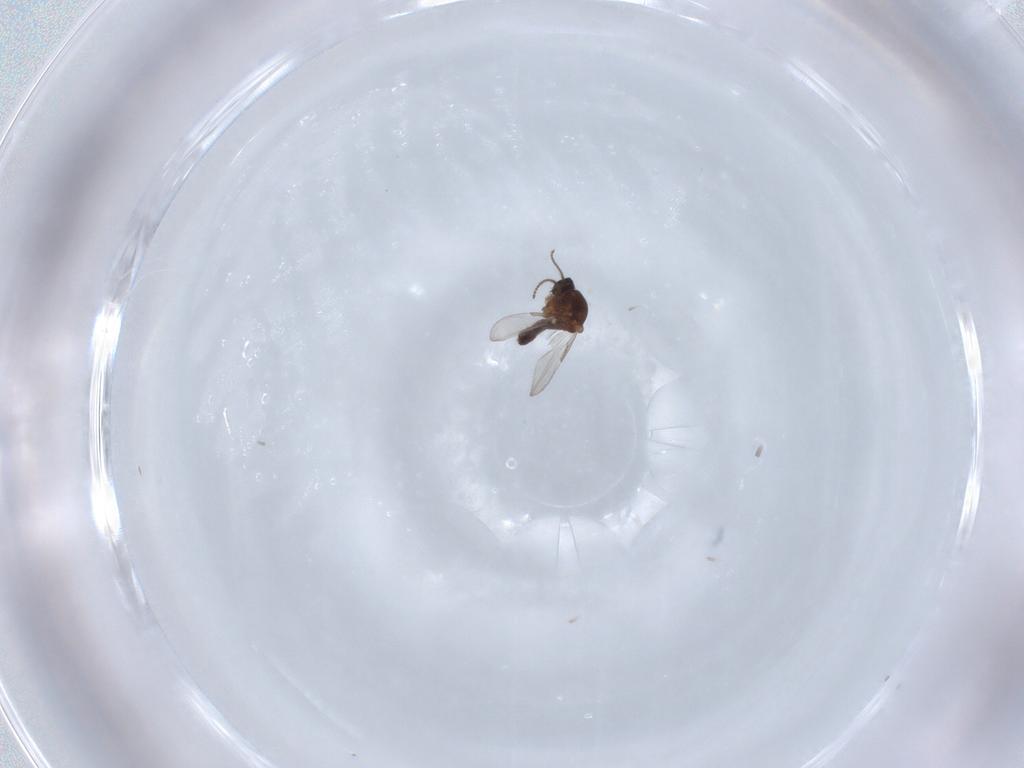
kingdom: Animalia
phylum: Arthropoda
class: Insecta
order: Diptera
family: Ceratopogonidae
